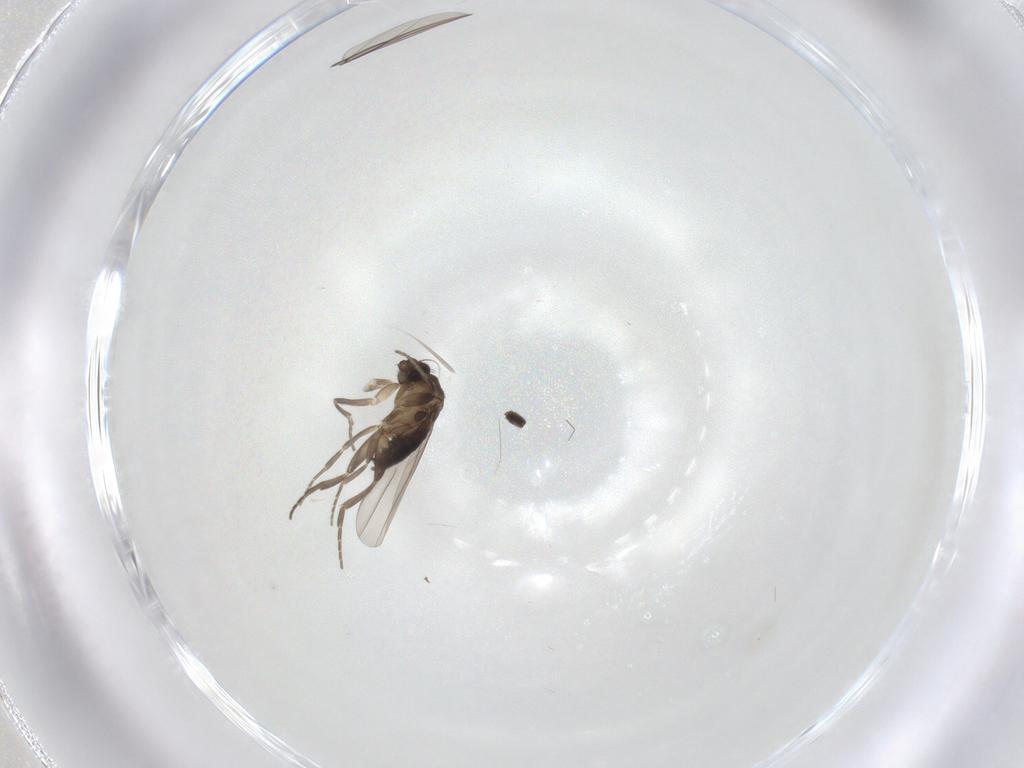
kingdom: Animalia
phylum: Arthropoda
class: Insecta
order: Diptera
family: Phoridae
